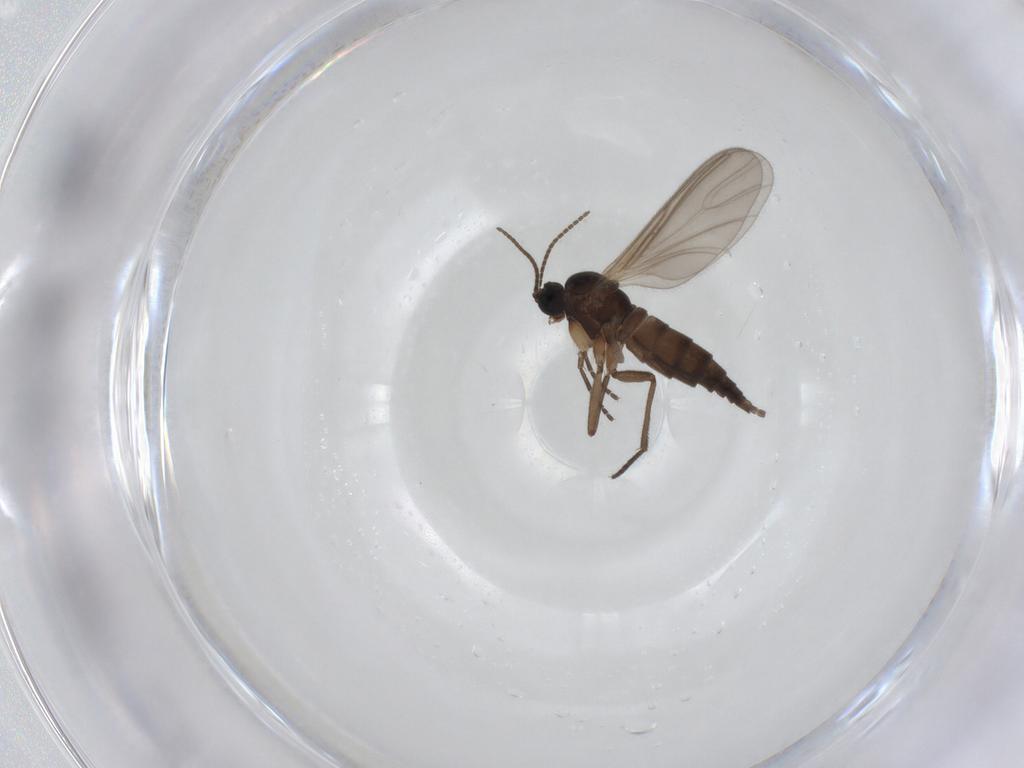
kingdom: Animalia
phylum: Arthropoda
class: Insecta
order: Diptera
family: Sciaridae
